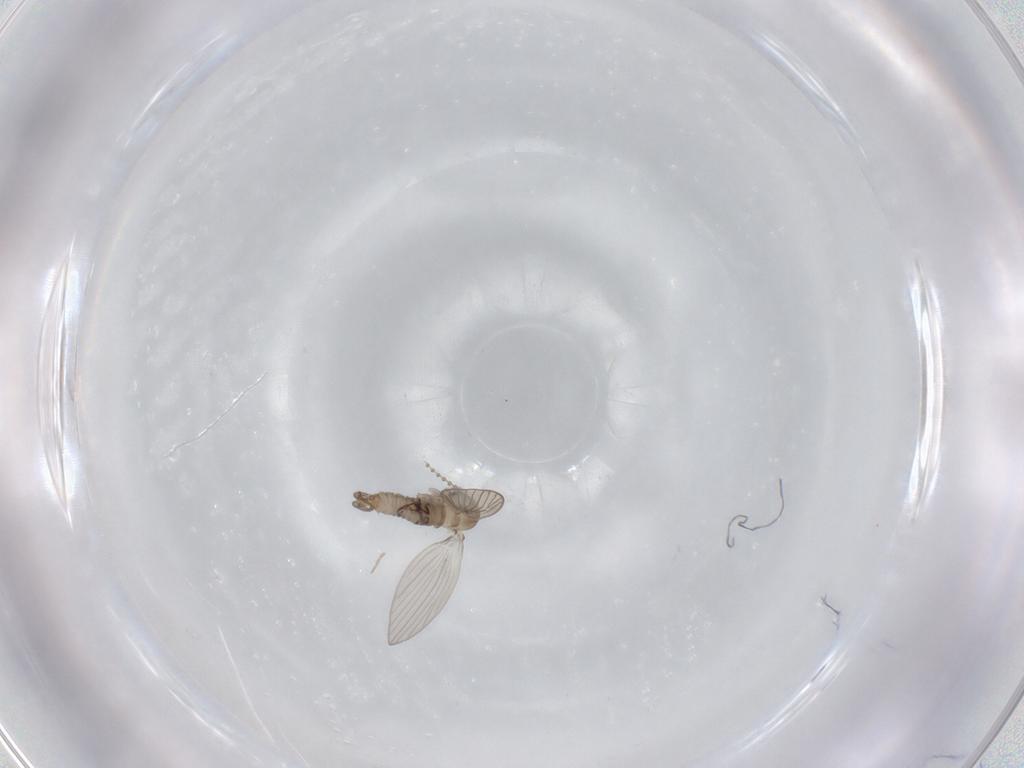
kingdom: Animalia
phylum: Arthropoda
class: Insecta
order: Diptera
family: Psychodidae
